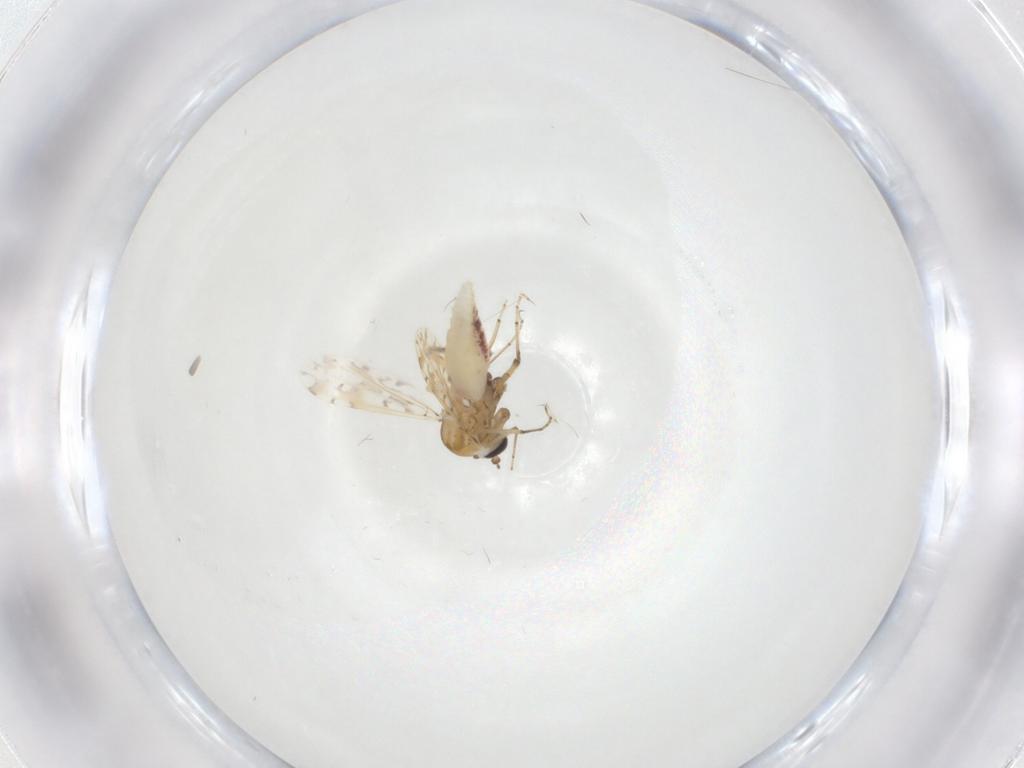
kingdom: Animalia
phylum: Arthropoda
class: Insecta
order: Diptera
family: Ceratopogonidae
